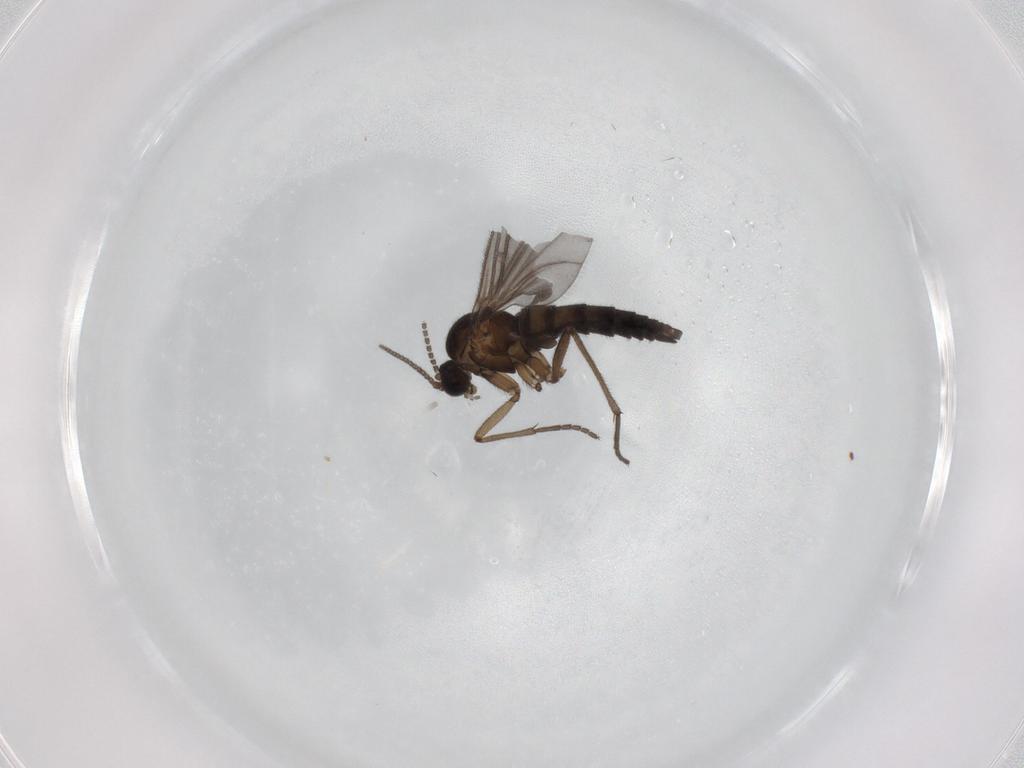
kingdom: Animalia
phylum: Arthropoda
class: Insecta
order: Diptera
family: Sciaridae
